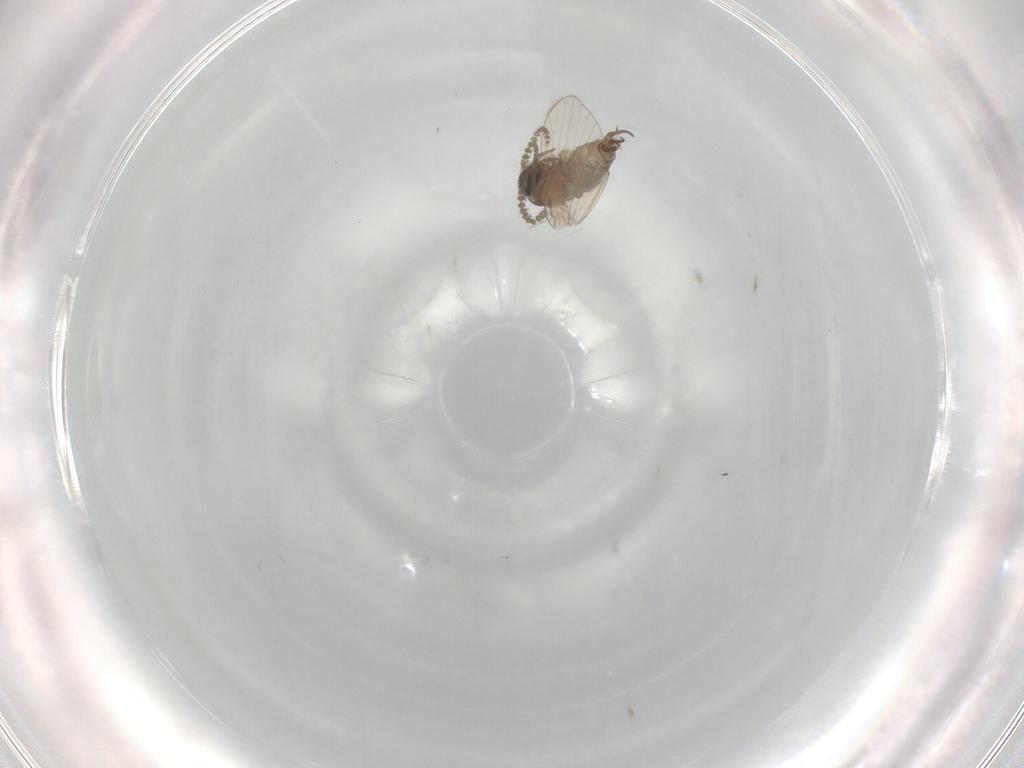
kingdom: Animalia
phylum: Arthropoda
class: Insecta
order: Diptera
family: Psychodidae
